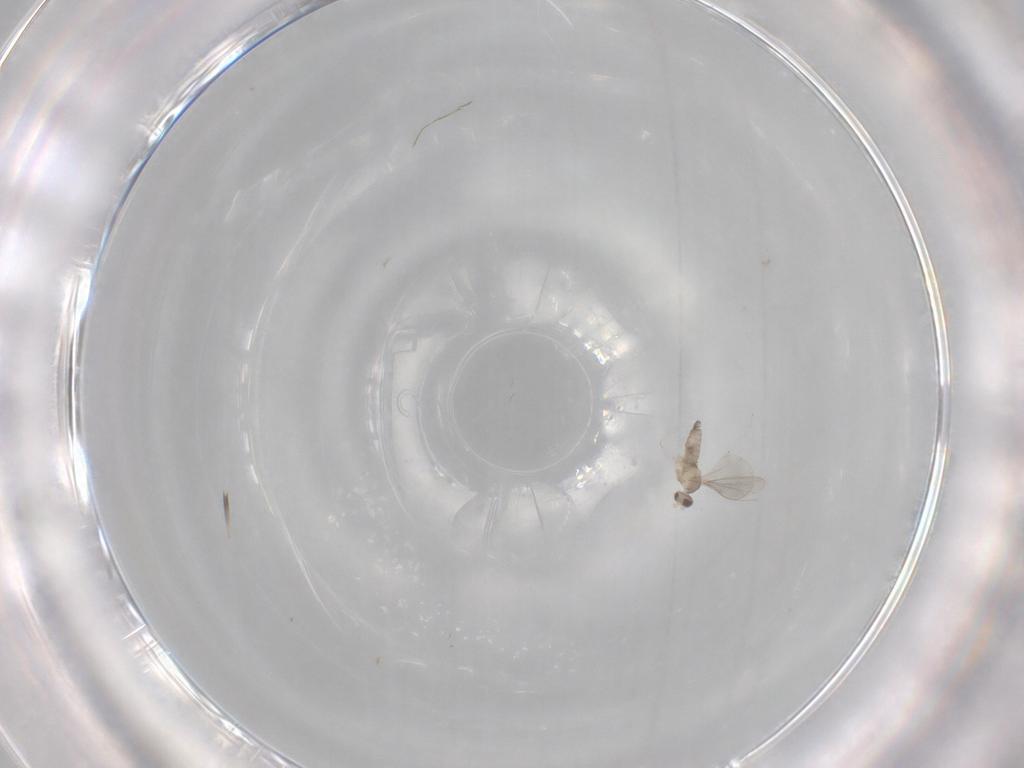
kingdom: Animalia
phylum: Arthropoda
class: Insecta
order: Diptera
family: Cecidomyiidae
